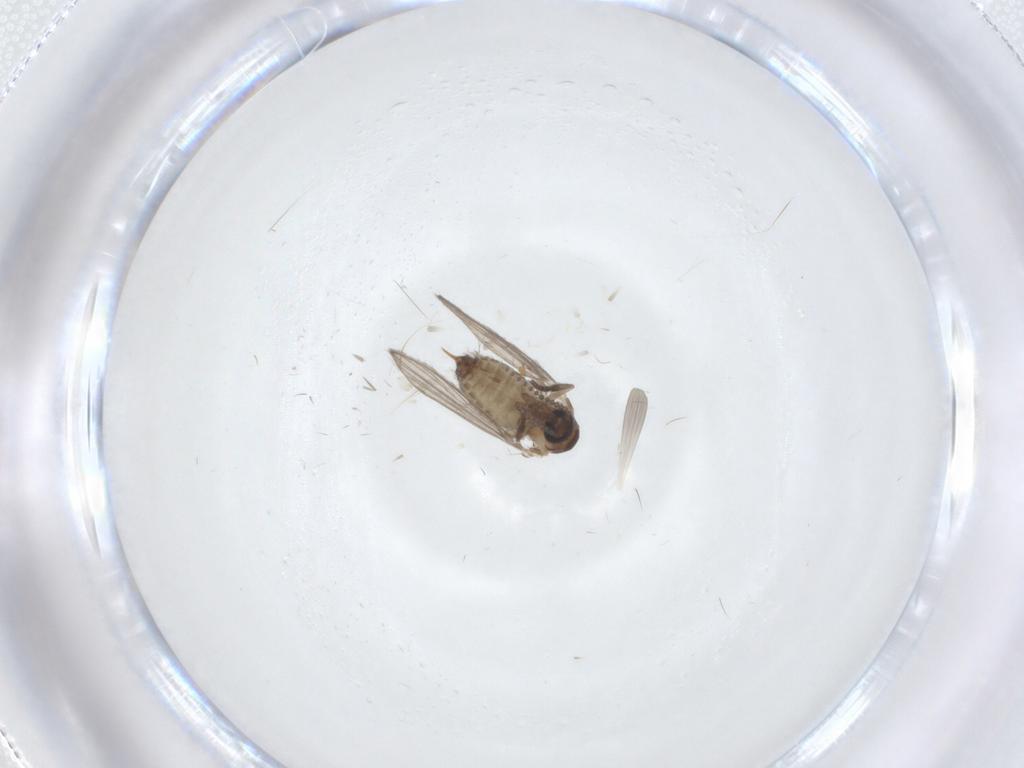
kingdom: Animalia
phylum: Arthropoda
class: Insecta
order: Diptera
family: Psychodidae
